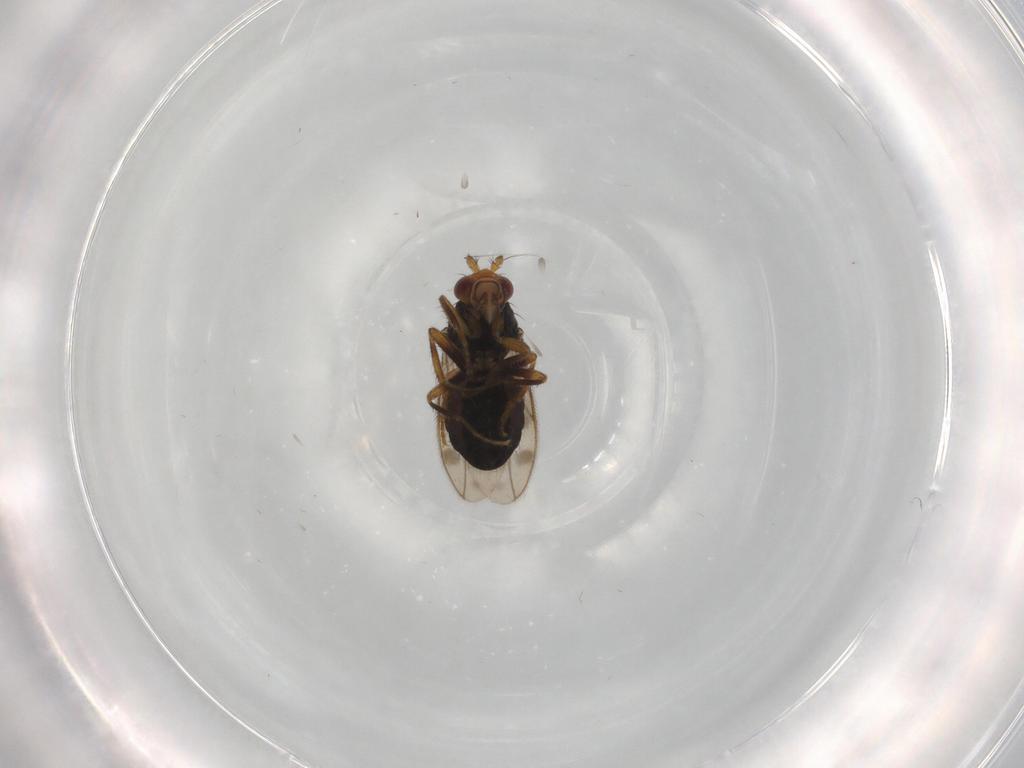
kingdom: Animalia
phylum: Arthropoda
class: Insecta
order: Diptera
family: Sphaeroceridae
